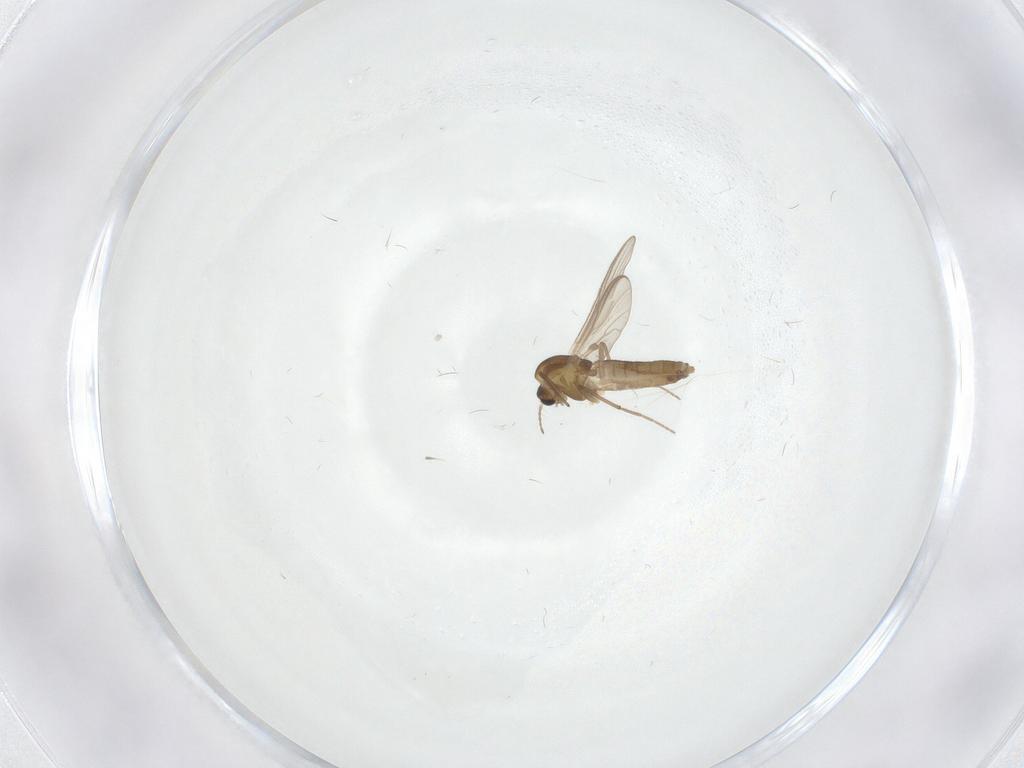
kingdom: Animalia
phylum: Arthropoda
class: Insecta
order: Diptera
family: Chironomidae
